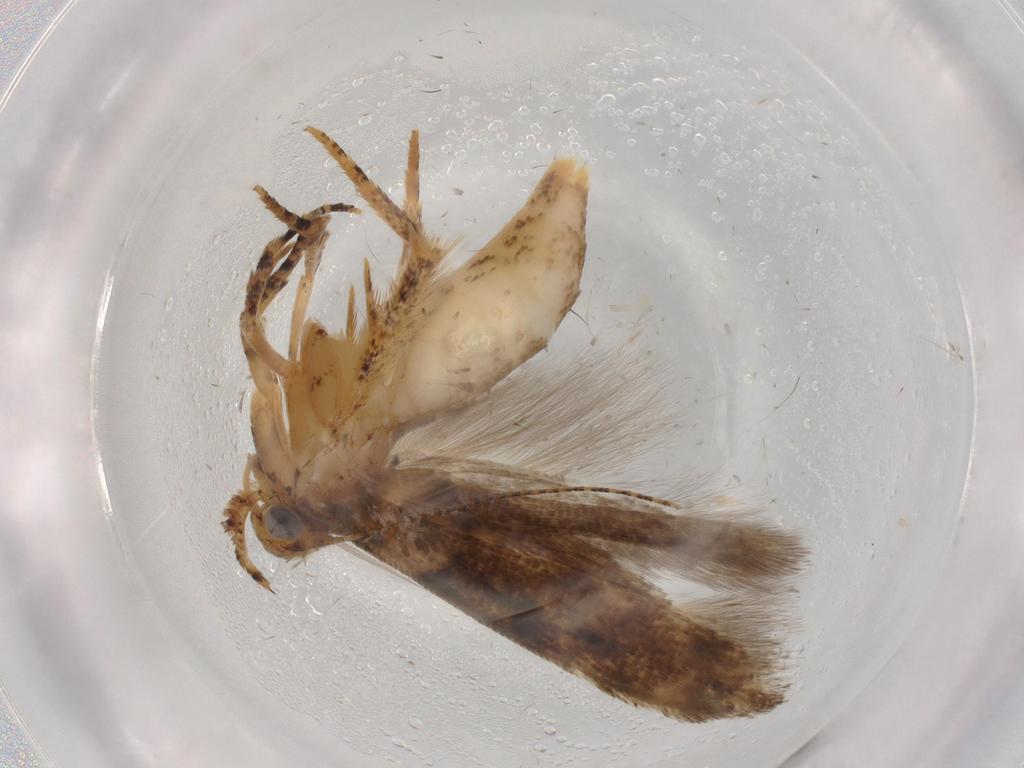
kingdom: Animalia
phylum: Arthropoda
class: Insecta
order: Lepidoptera
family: Gelechiidae
